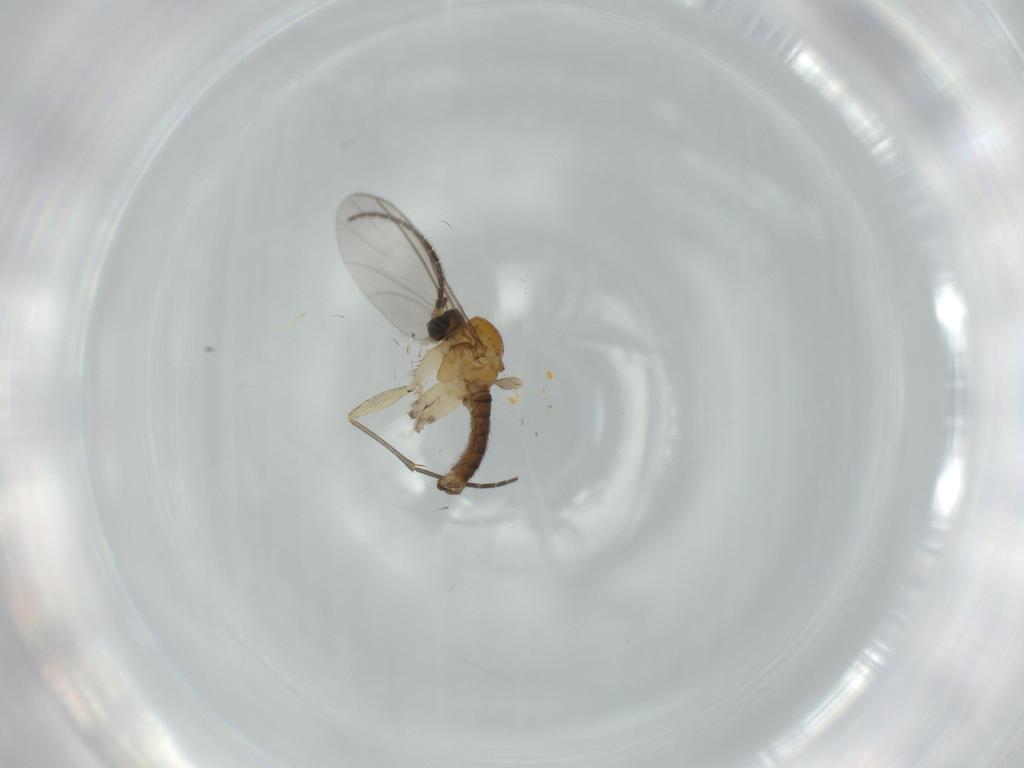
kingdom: Animalia
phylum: Arthropoda
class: Insecta
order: Diptera
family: Sciaridae
